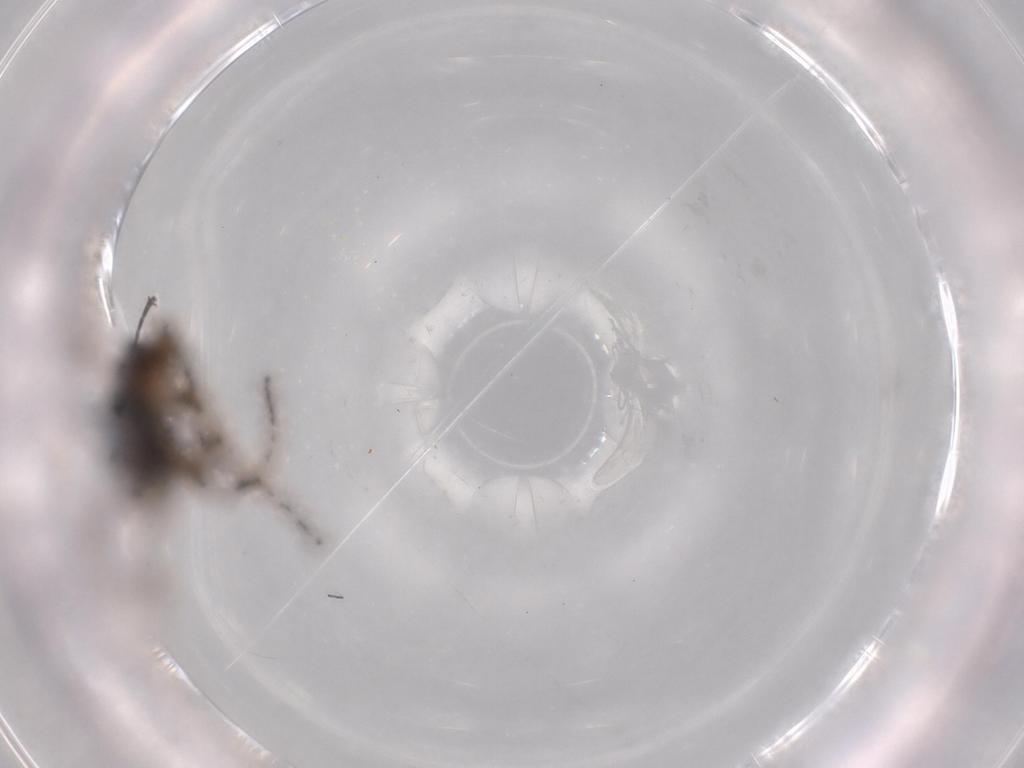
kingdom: Animalia
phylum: Arthropoda
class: Insecta
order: Hymenoptera
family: Ichneumonidae
